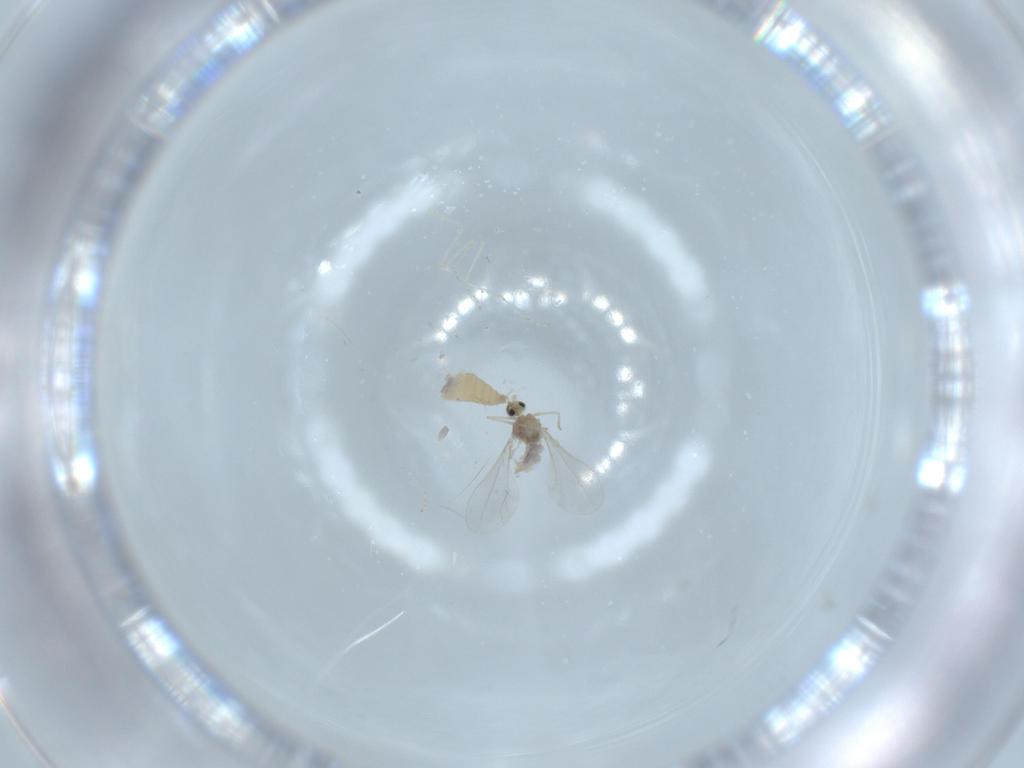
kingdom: Animalia
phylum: Arthropoda
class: Insecta
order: Diptera
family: Cecidomyiidae
